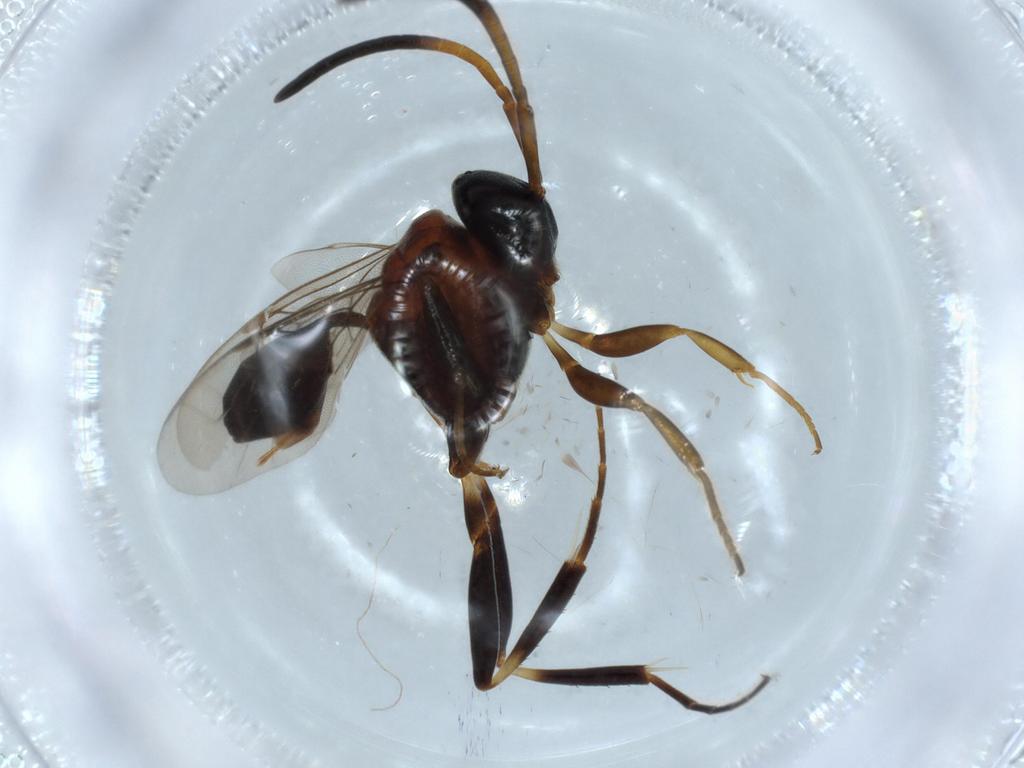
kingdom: Animalia
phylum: Arthropoda
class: Insecta
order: Hymenoptera
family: Evaniidae
